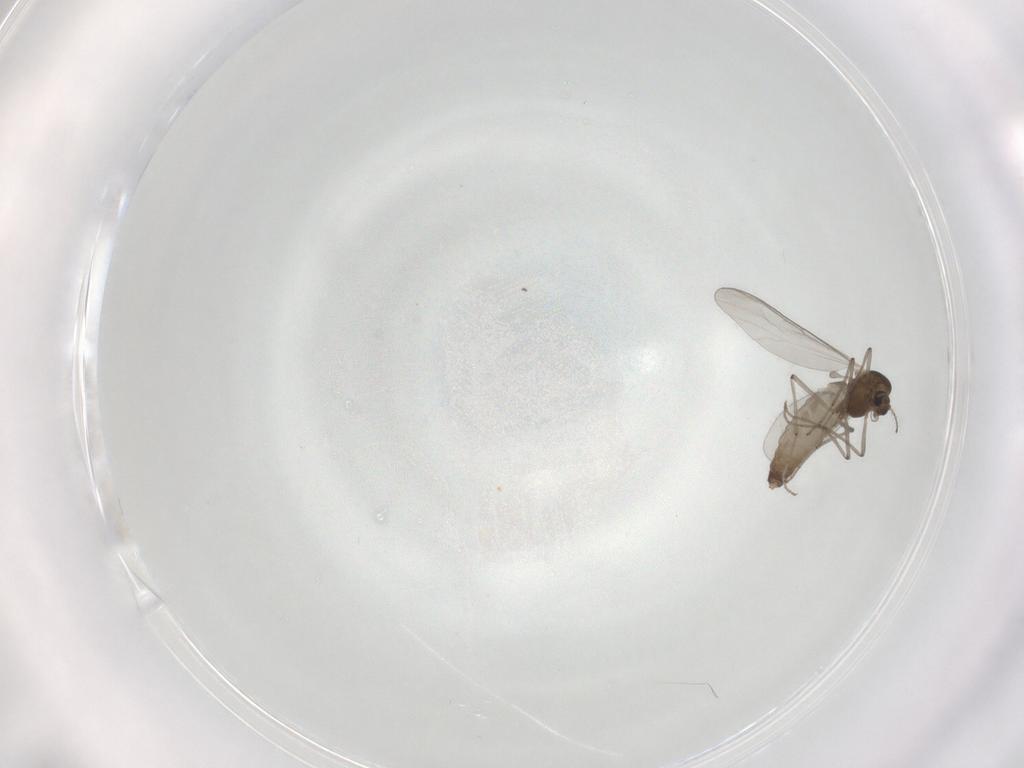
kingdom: Animalia
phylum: Arthropoda
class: Insecta
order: Diptera
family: Chironomidae
